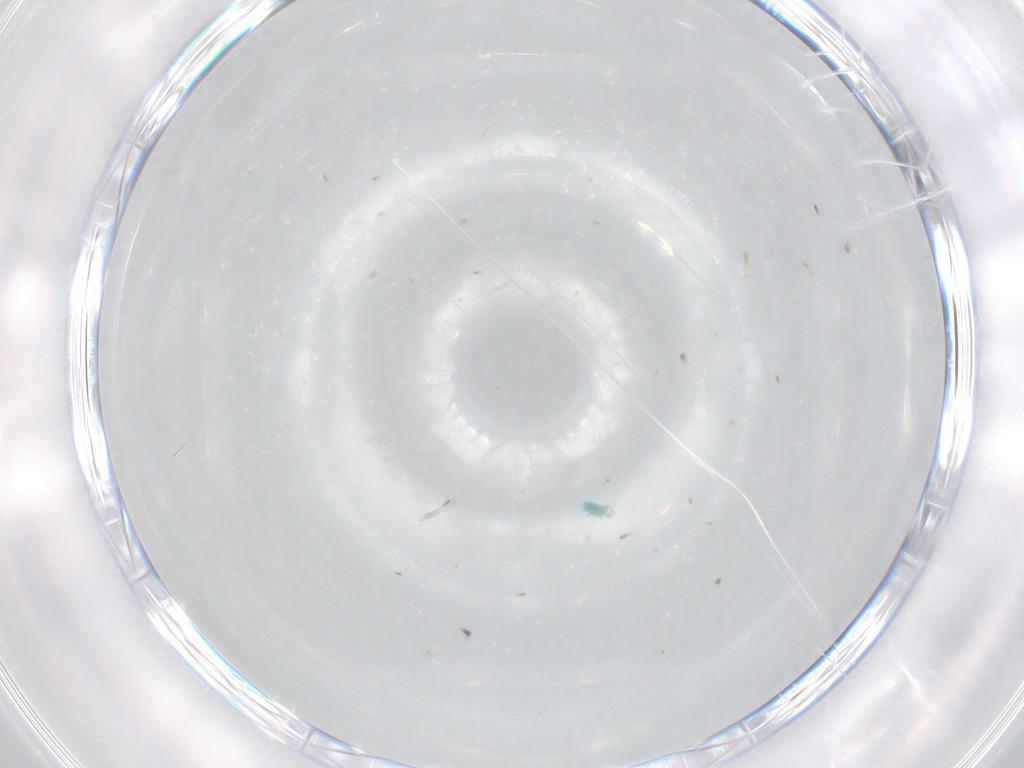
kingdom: Animalia
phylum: Arthropoda
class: Insecta
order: Diptera
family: Cecidomyiidae
